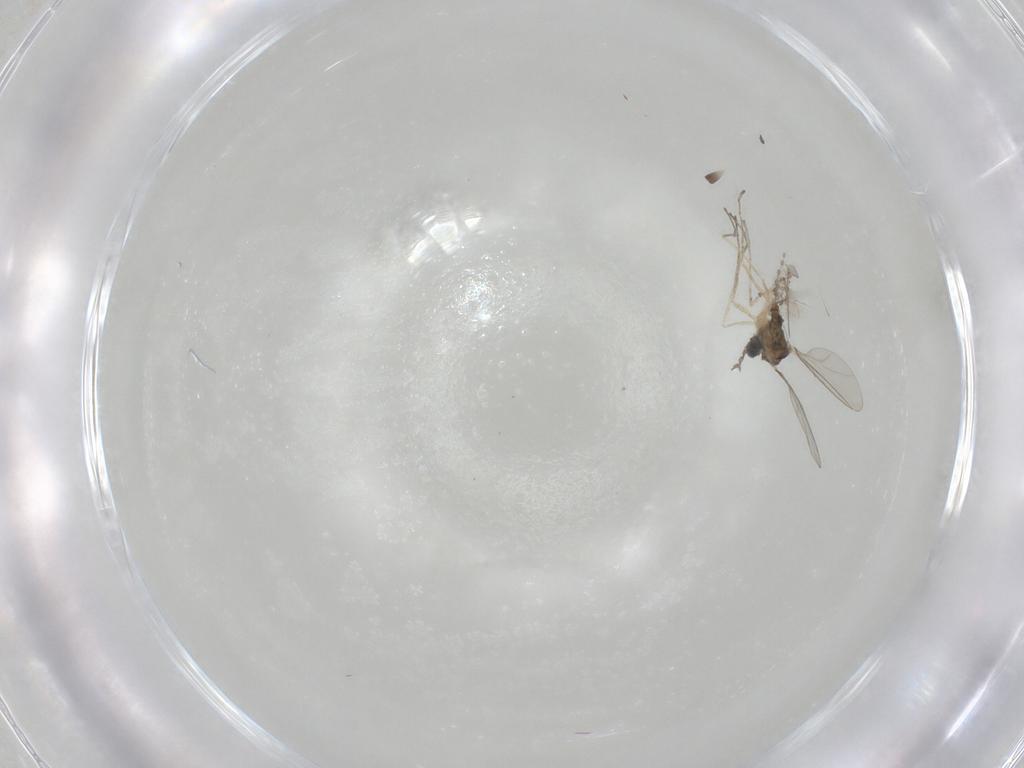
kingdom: Animalia
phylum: Arthropoda
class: Insecta
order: Diptera
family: Cecidomyiidae
